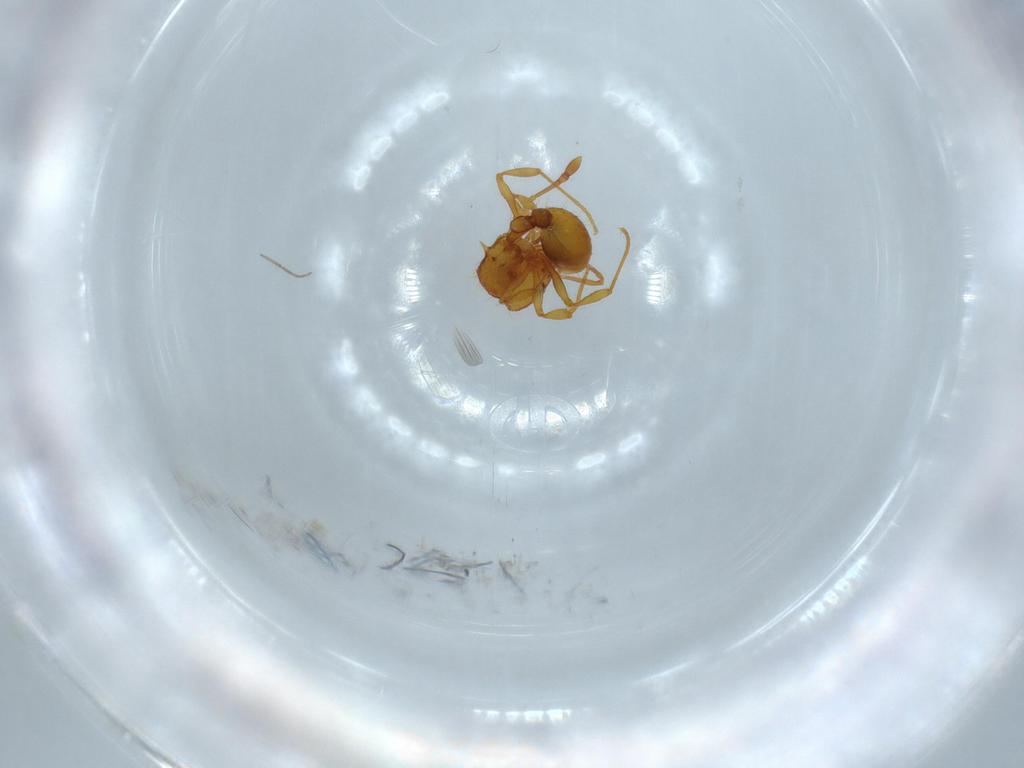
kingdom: Animalia
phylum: Arthropoda
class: Insecta
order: Hymenoptera
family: Formicidae
